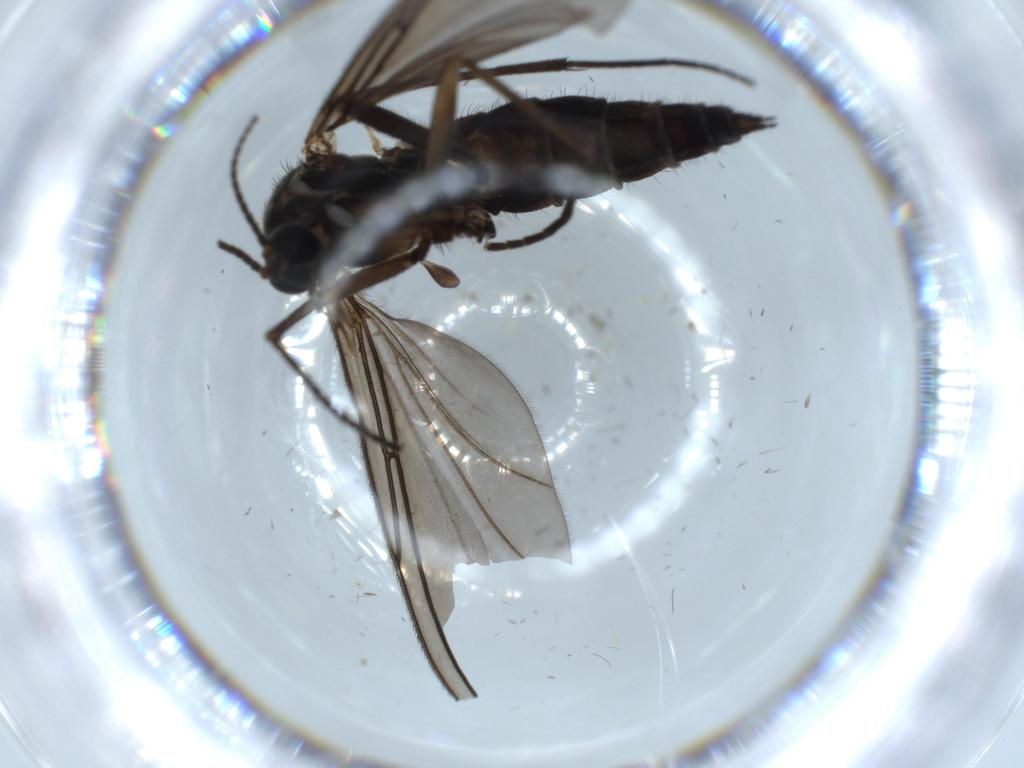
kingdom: Animalia
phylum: Arthropoda
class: Insecta
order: Diptera
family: Sciaridae
